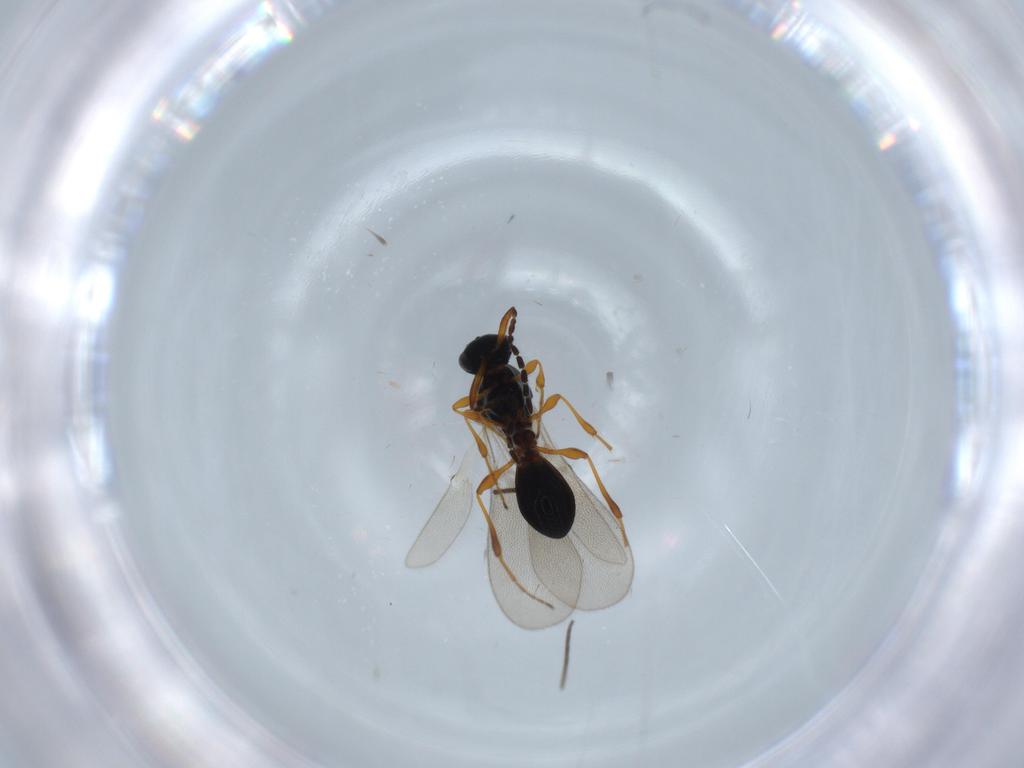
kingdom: Animalia
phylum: Arthropoda
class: Insecta
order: Hymenoptera
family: Platygastridae
